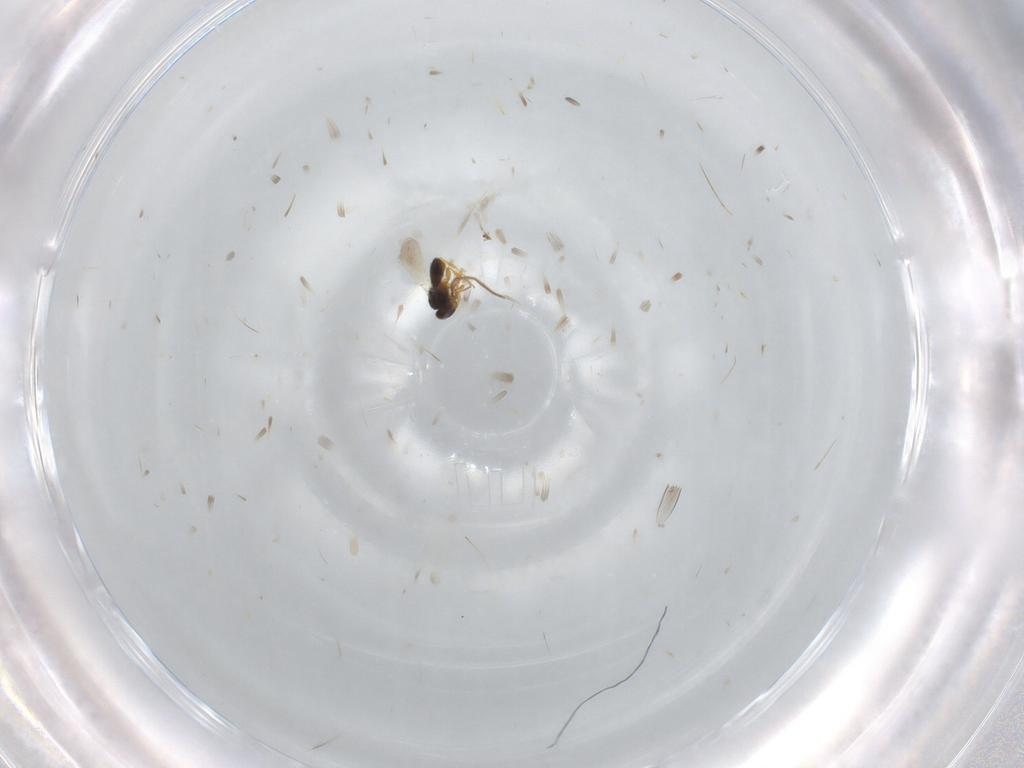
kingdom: Animalia
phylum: Arthropoda
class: Insecta
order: Hymenoptera
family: Platygastridae
